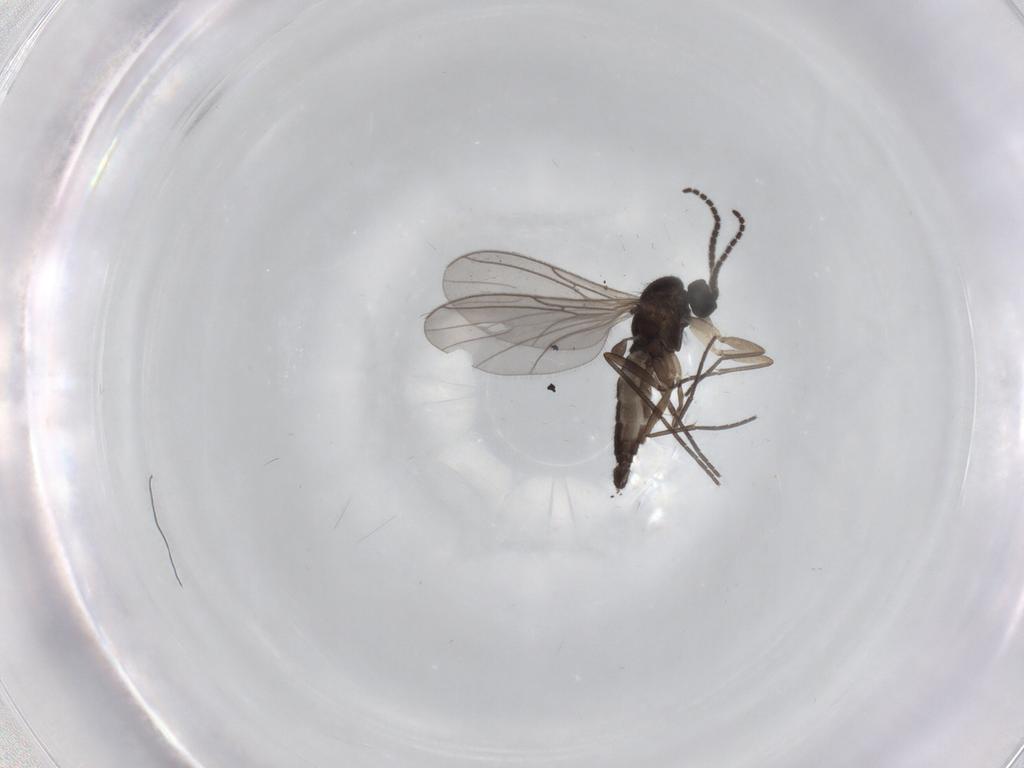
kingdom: Animalia
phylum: Arthropoda
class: Insecta
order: Diptera
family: Sciaridae
